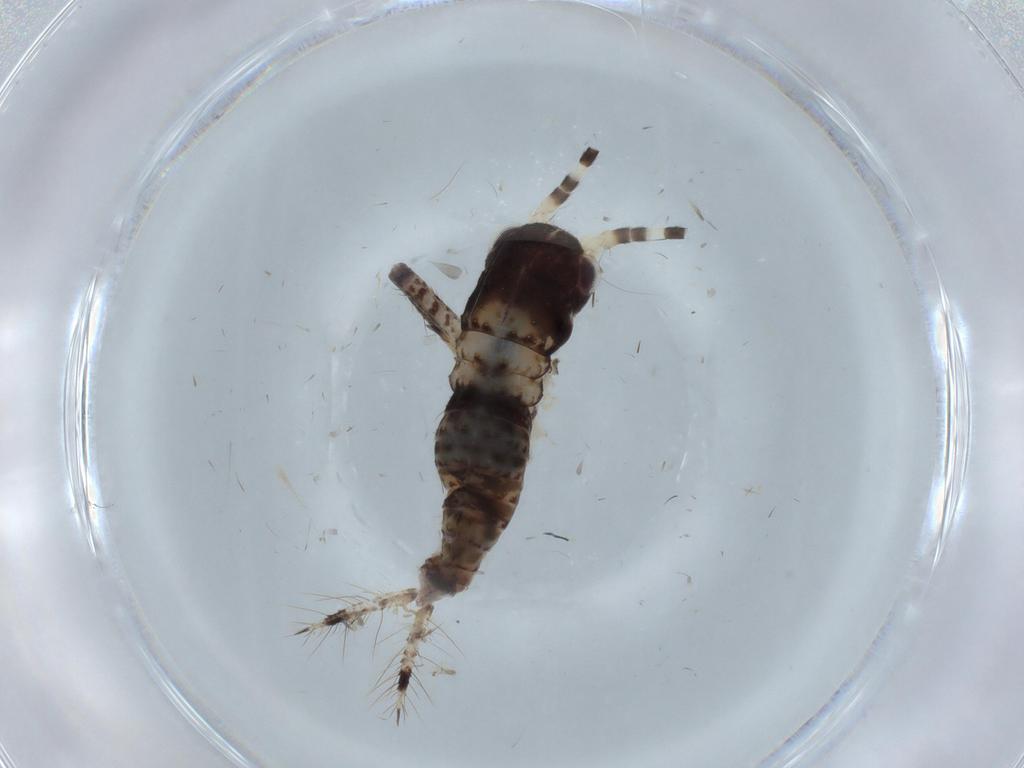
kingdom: Animalia
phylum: Arthropoda
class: Insecta
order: Orthoptera
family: Gryllidae
